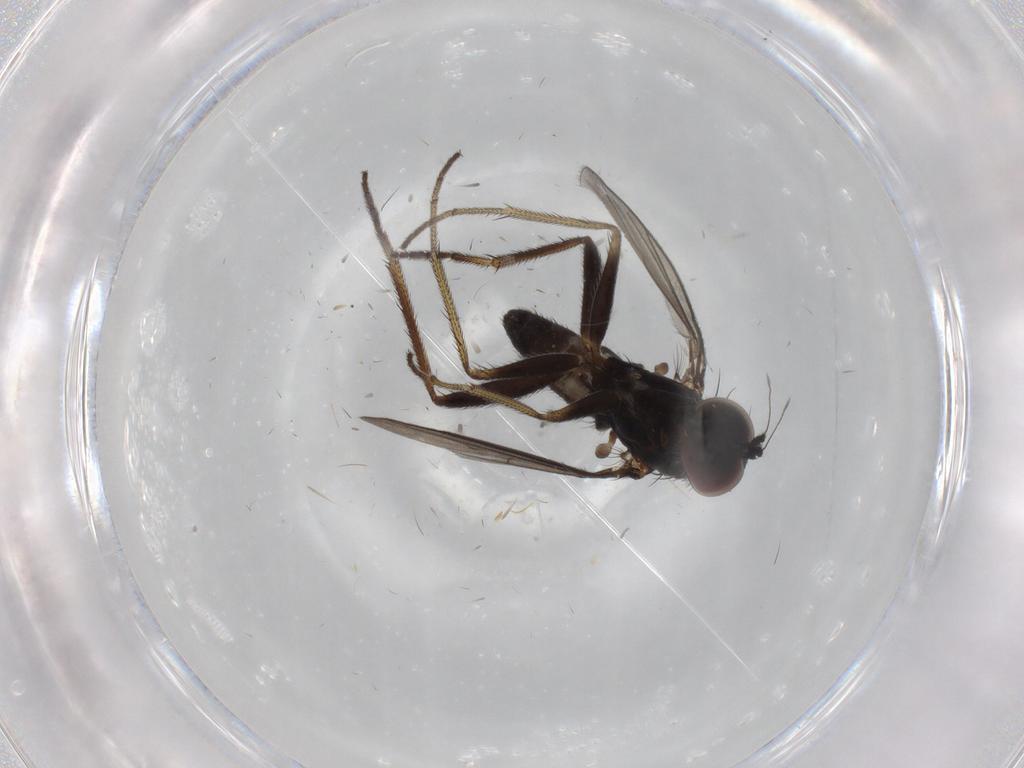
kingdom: Animalia
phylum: Arthropoda
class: Insecta
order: Diptera
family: Dolichopodidae
